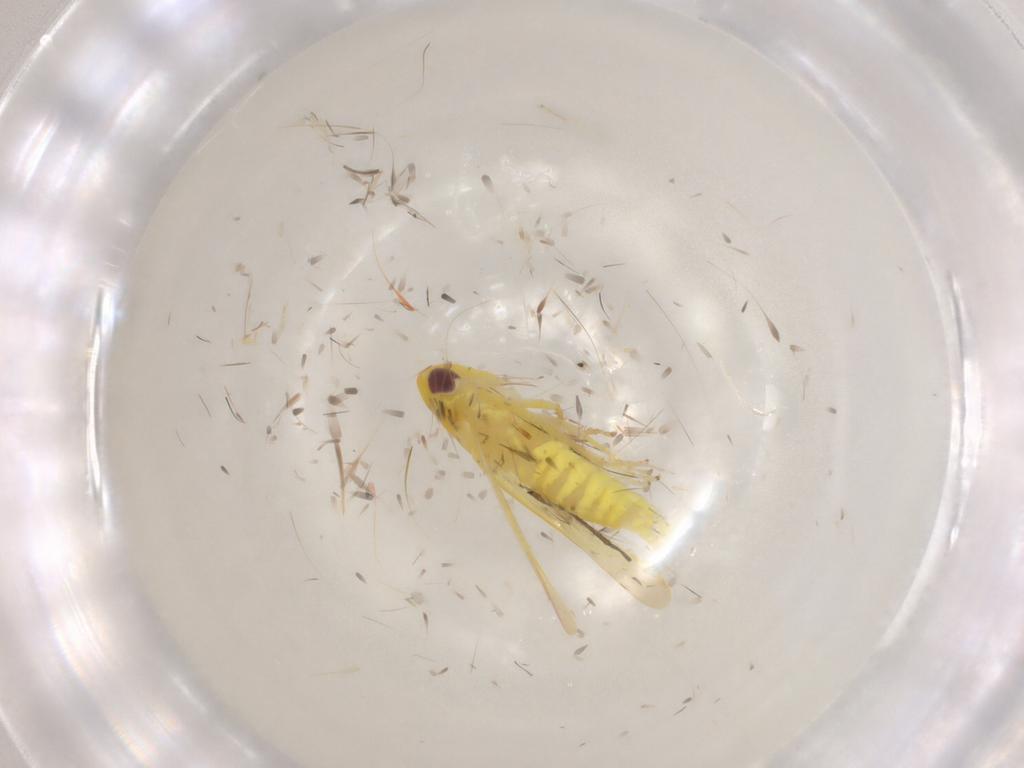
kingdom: Animalia
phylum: Arthropoda
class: Insecta
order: Hemiptera
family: Cicadellidae
